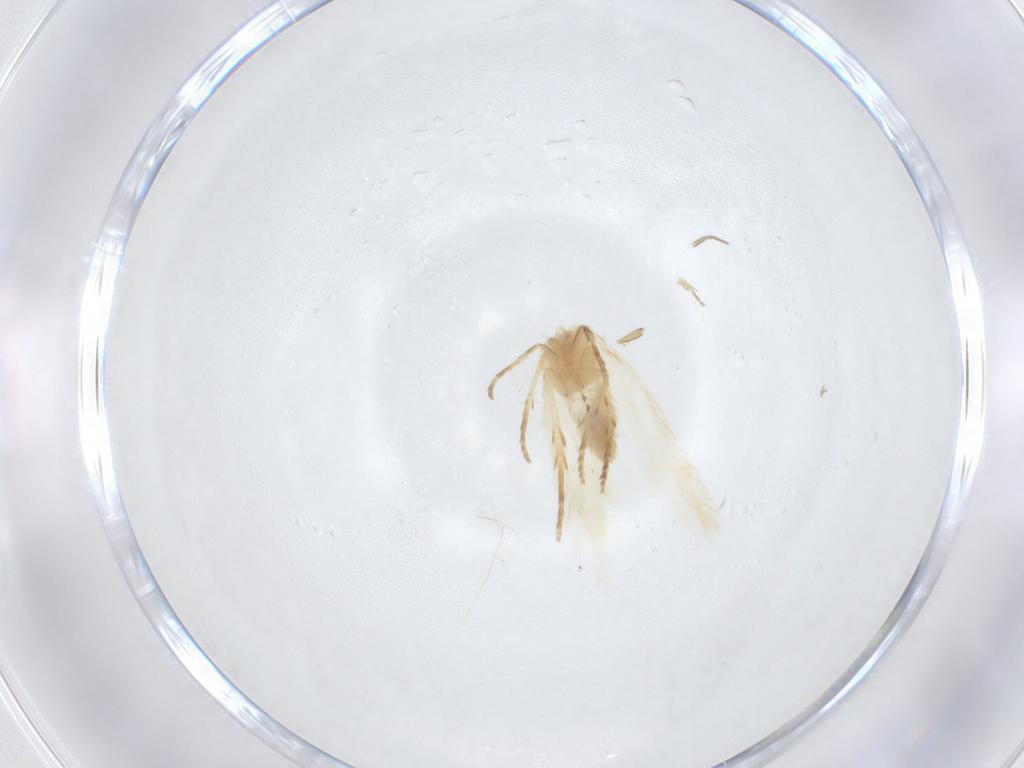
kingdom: Animalia
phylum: Arthropoda
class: Insecta
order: Lepidoptera
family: Nepticulidae
